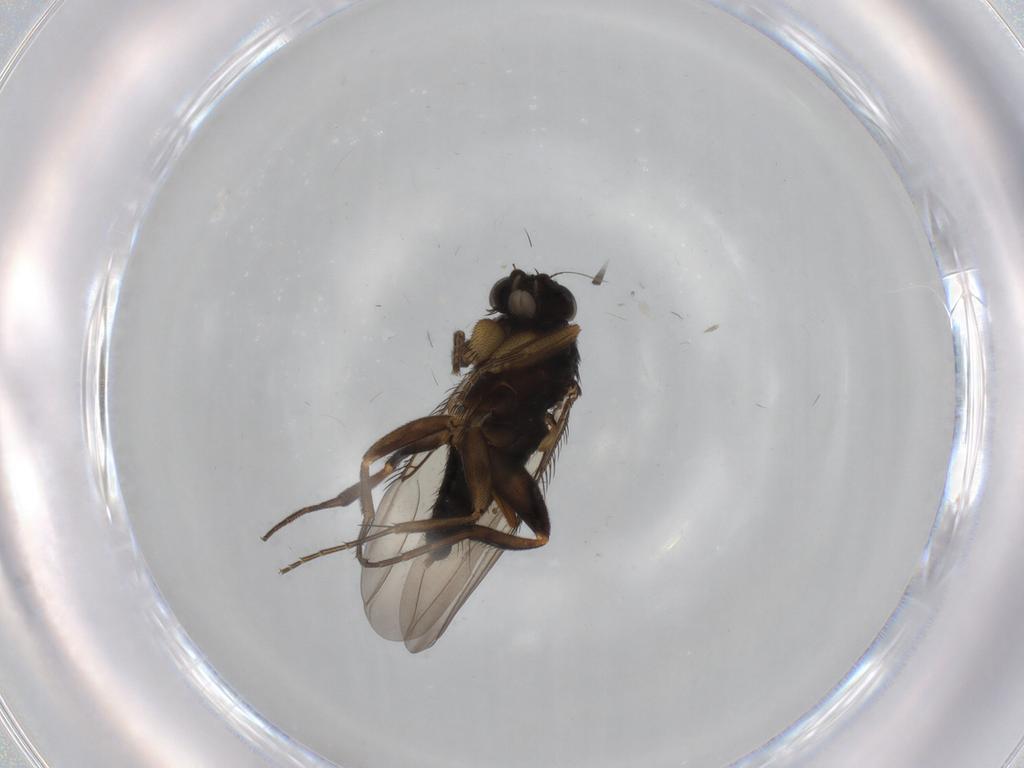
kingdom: Animalia
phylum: Arthropoda
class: Insecta
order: Diptera
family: Phoridae
